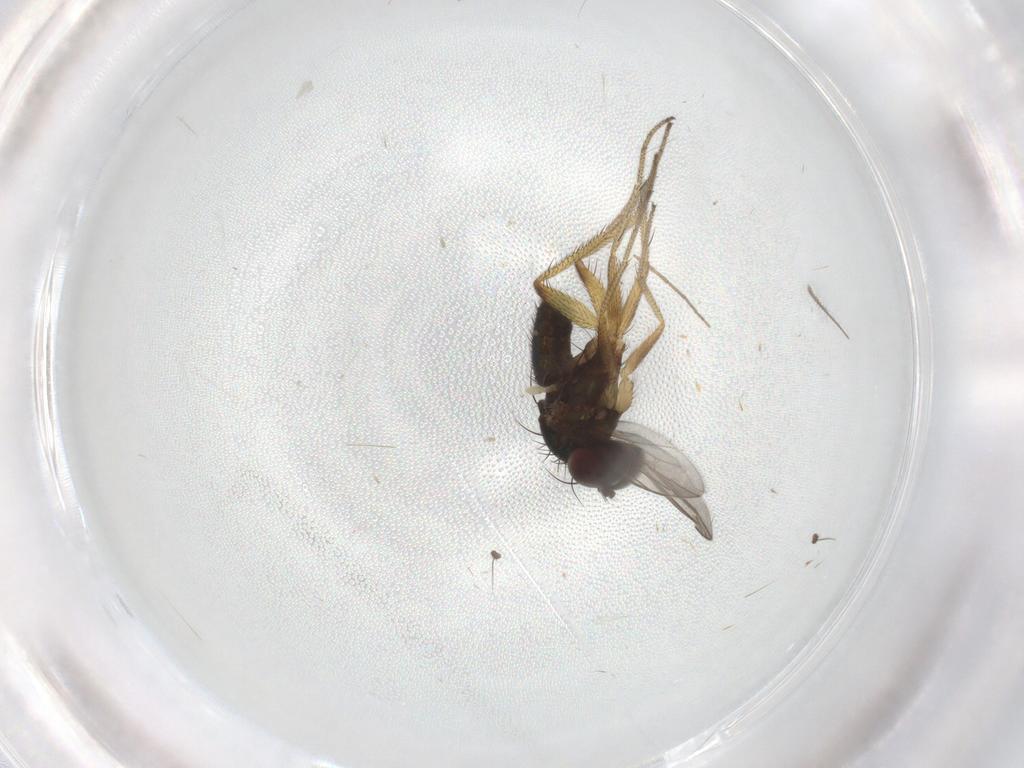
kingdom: Animalia
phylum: Arthropoda
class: Insecta
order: Diptera
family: Dolichopodidae
